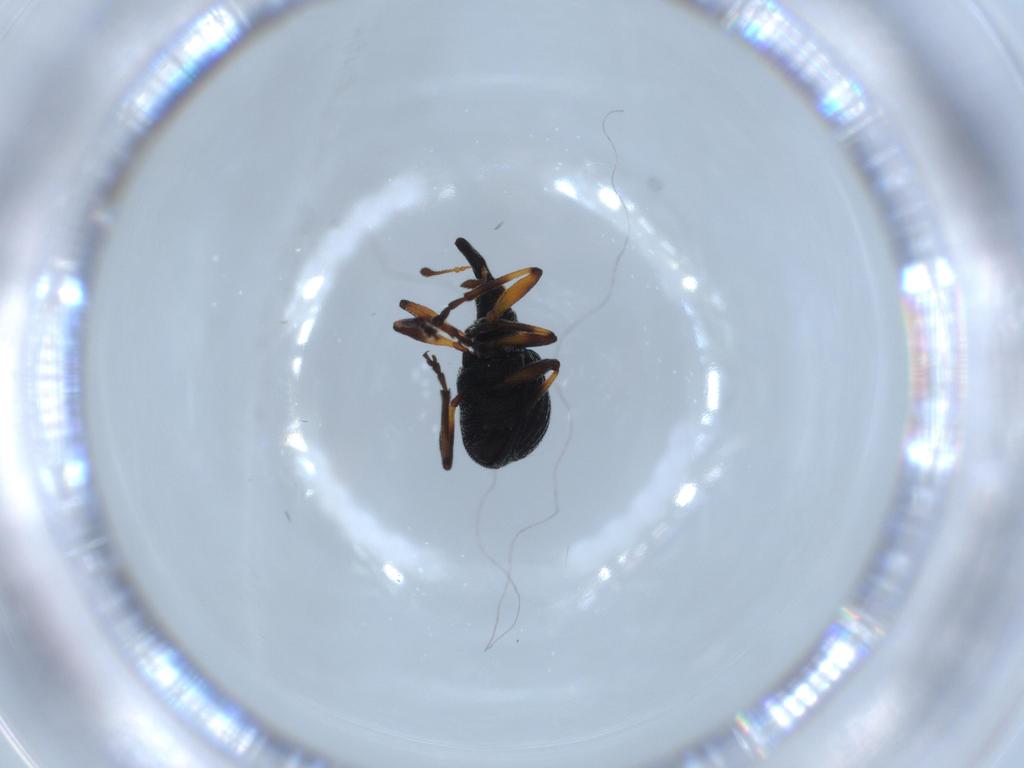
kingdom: Animalia
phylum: Arthropoda
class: Insecta
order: Coleoptera
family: Brentidae
